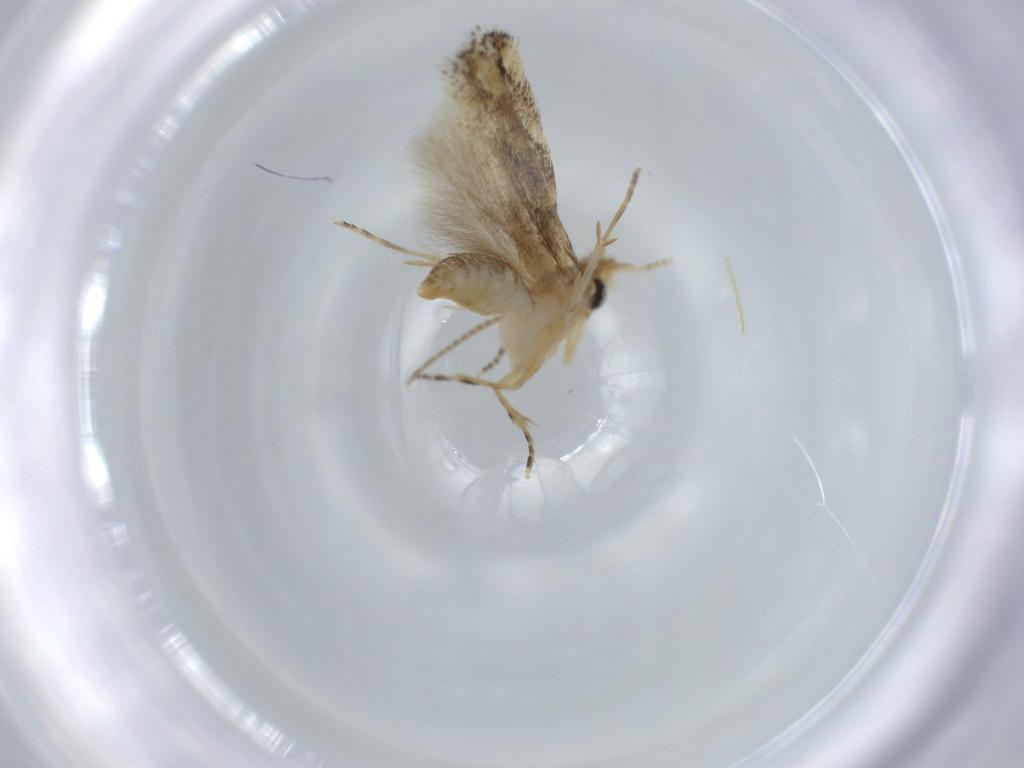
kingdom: Animalia
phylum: Arthropoda
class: Insecta
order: Lepidoptera
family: Bucculatricidae
